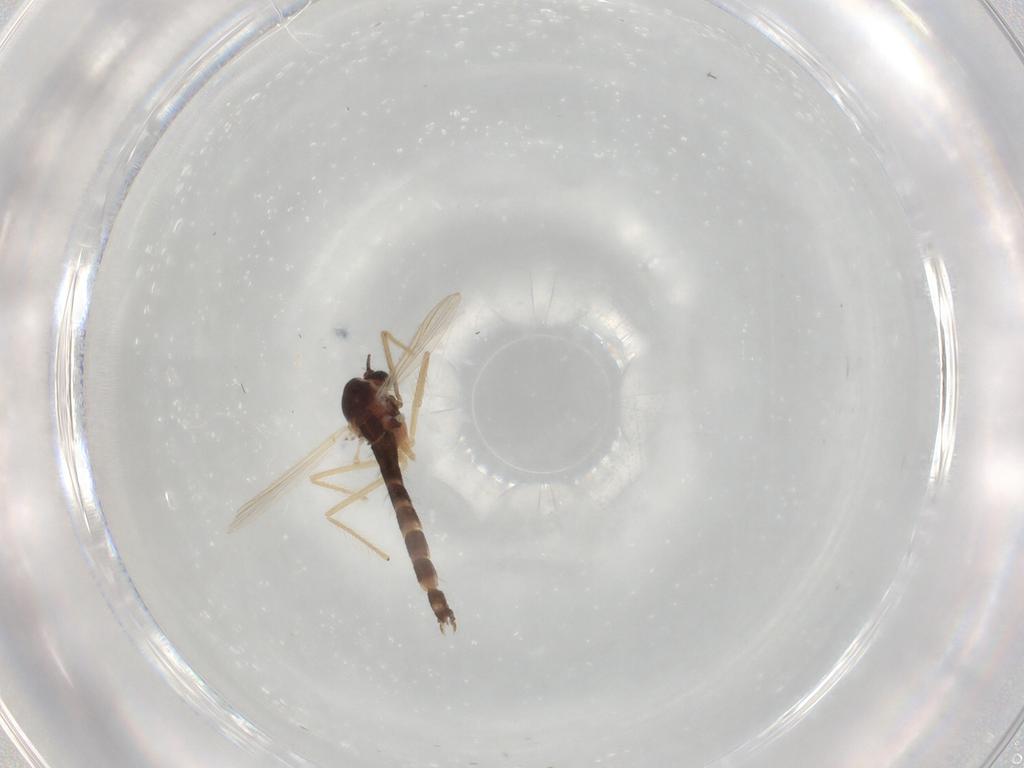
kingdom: Animalia
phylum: Arthropoda
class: Insecta
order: Diptera
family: Chironomidae
